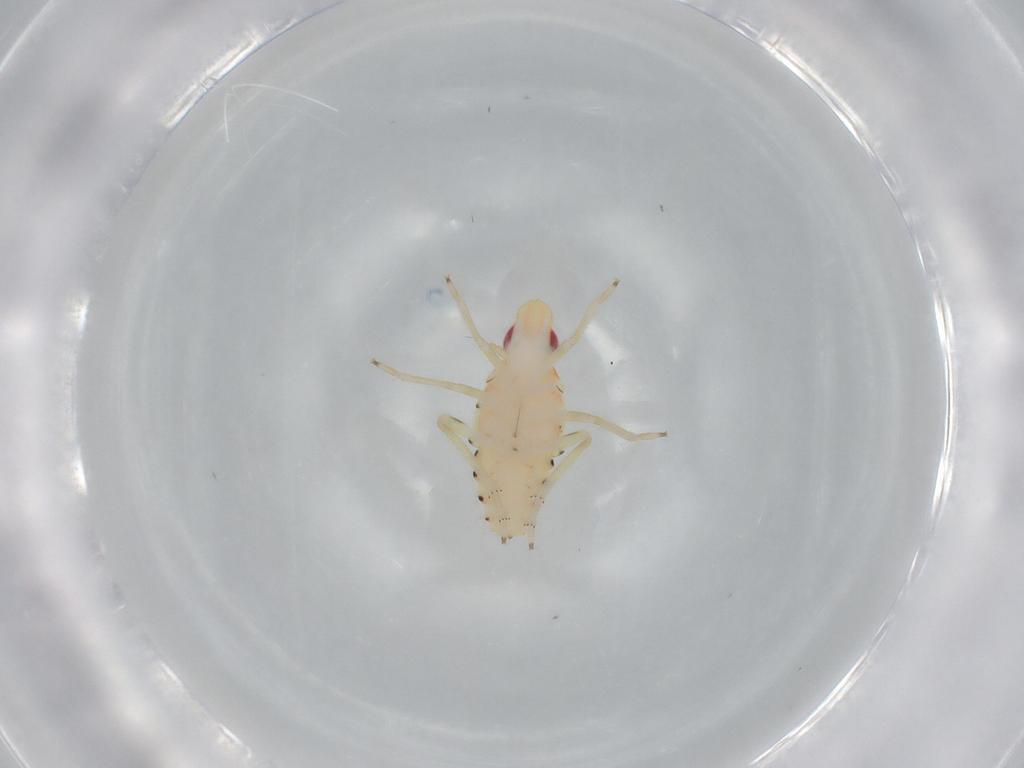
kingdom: Animalia
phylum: Arthropoda
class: Insecta
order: Hemiptera
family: Tropiduchidae
